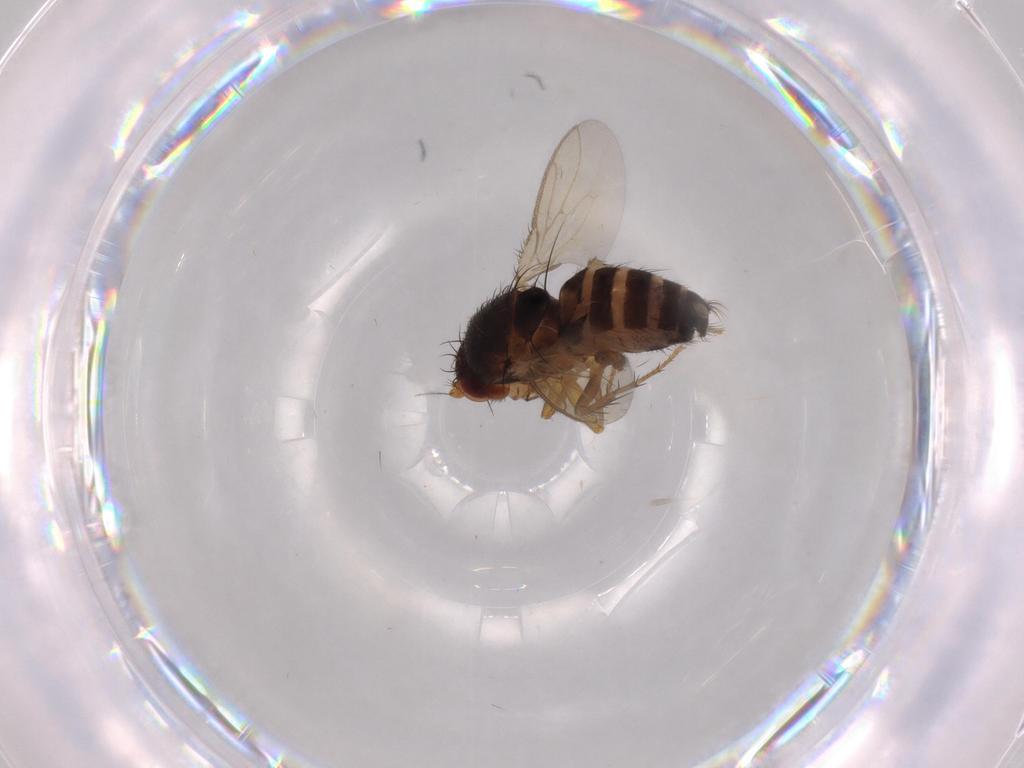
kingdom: Animalia
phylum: Arthropoda
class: Insecta
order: Diptera
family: Sphaeroceridae
